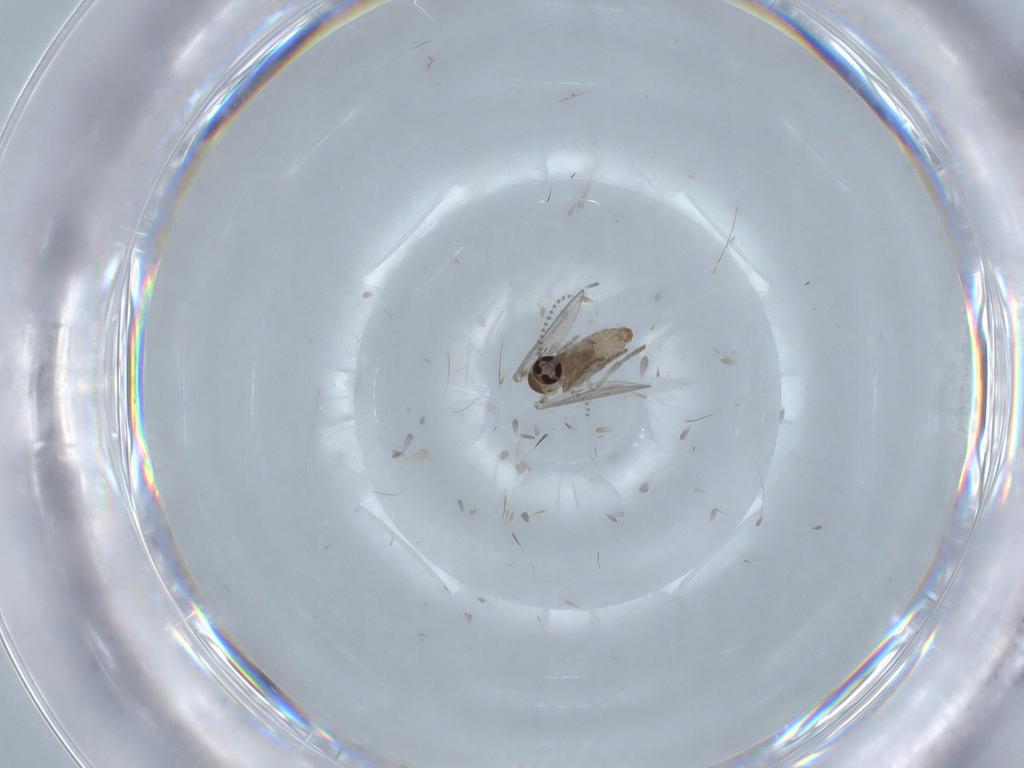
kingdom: Animalia
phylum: Arthropoda
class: Insecta
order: Diptera
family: Psychodidae
